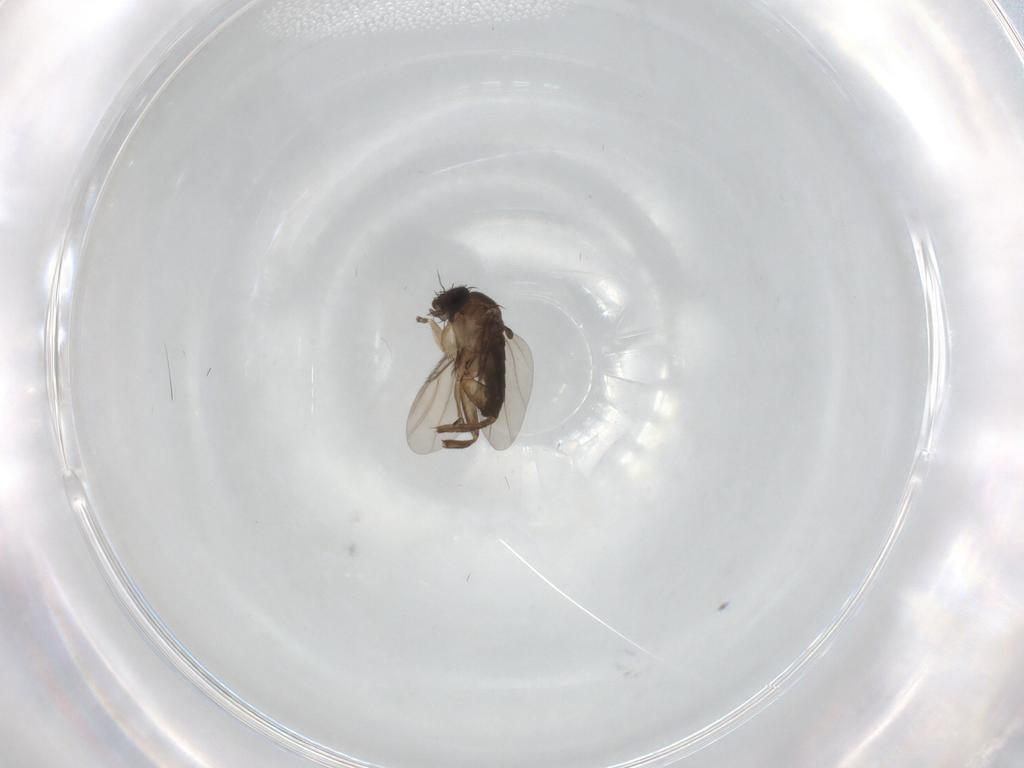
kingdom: Animalia
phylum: Arthropoda
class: Insecta
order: Diptera
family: Phoridae
